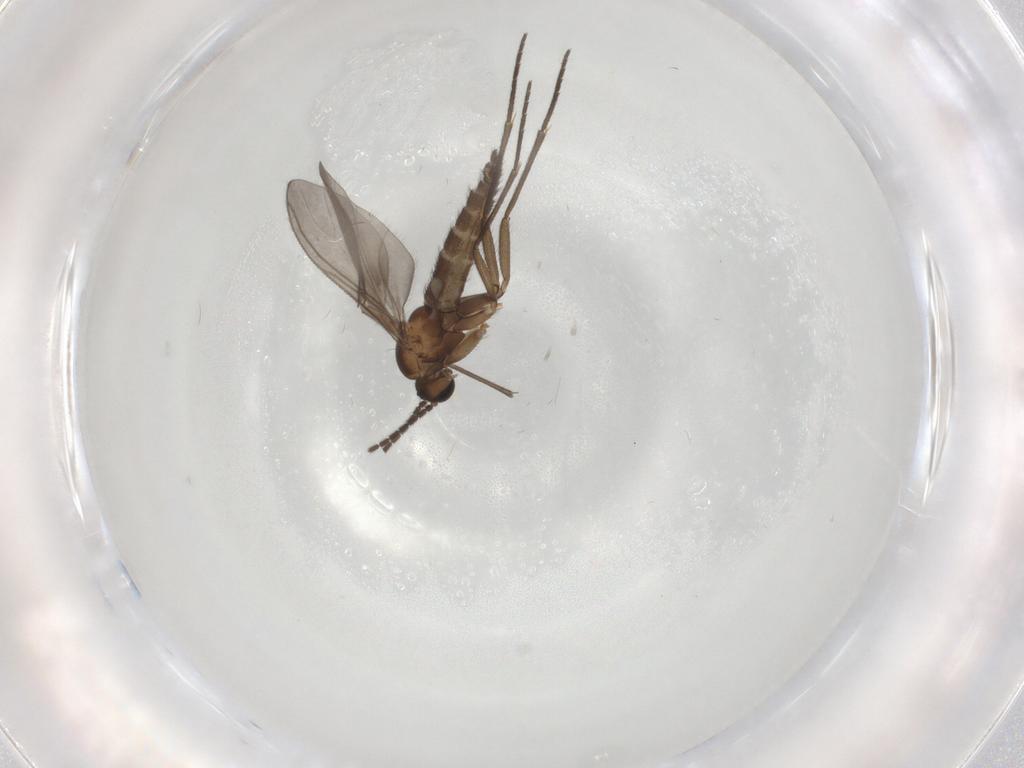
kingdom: Animalia
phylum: Arthropoda
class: Insecta
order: Diptera
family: Sciaridae
